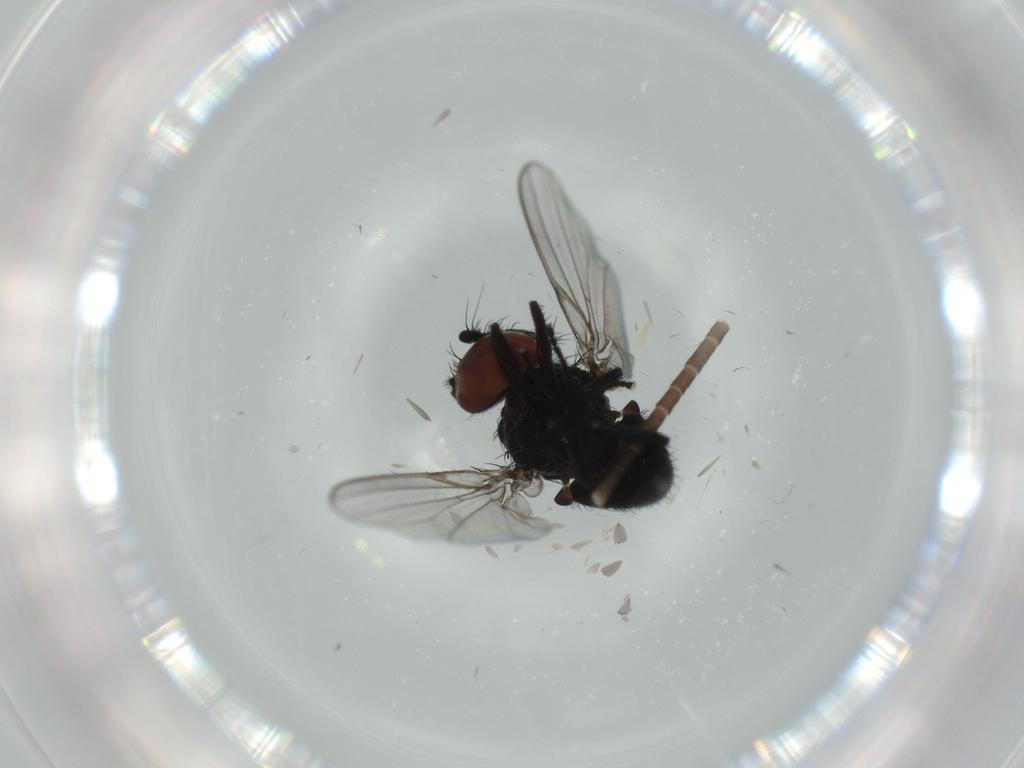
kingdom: Animalia
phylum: Arthropoda
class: Insecta
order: Diptera
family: Milichiidae
